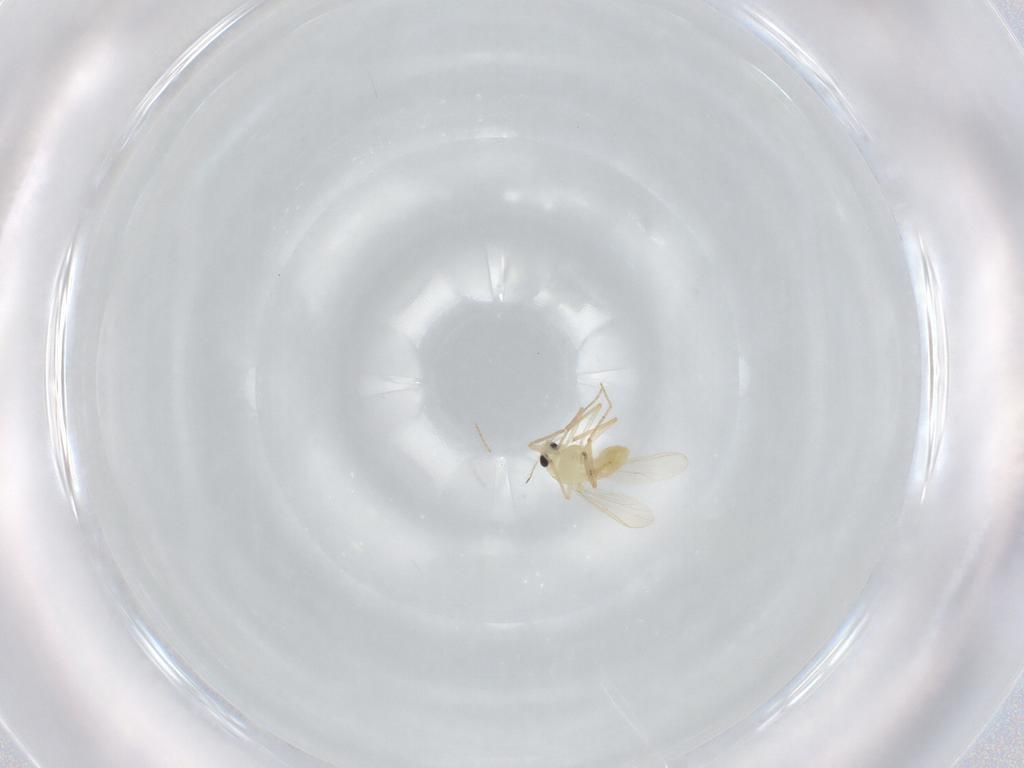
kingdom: Animalia
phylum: Arthropoda
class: Insecta
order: Diptera
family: Chironomidae
